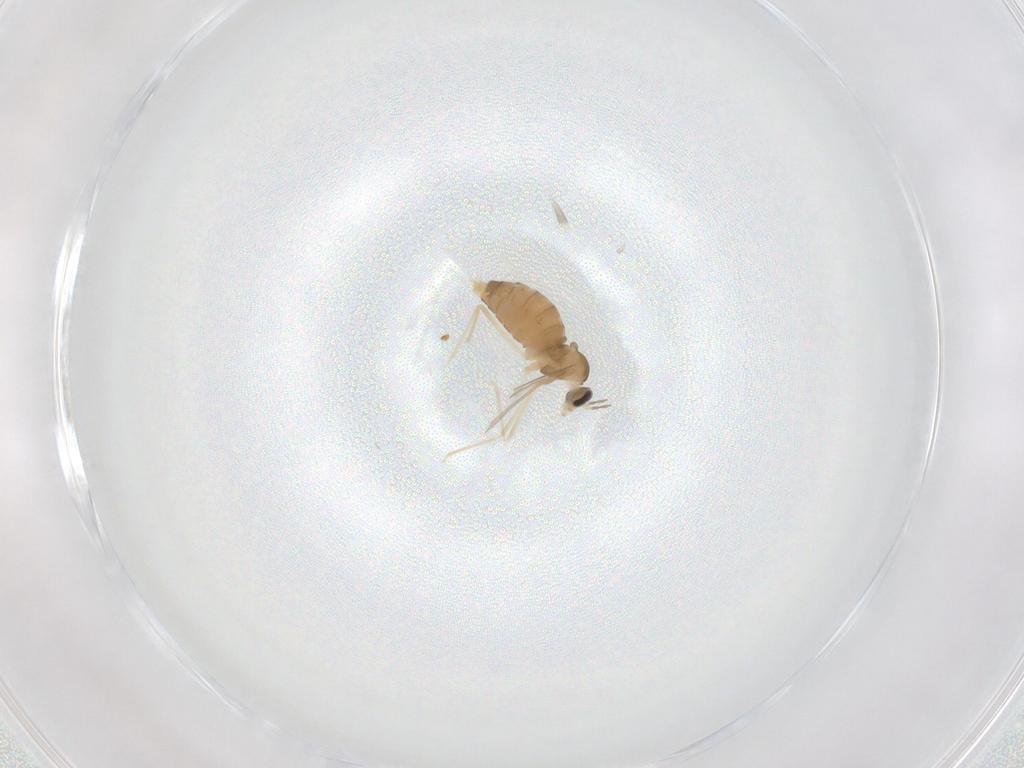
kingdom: Animalia
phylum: Arthropoda
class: Insecta
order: Diptera
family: Cecidomyiidae
